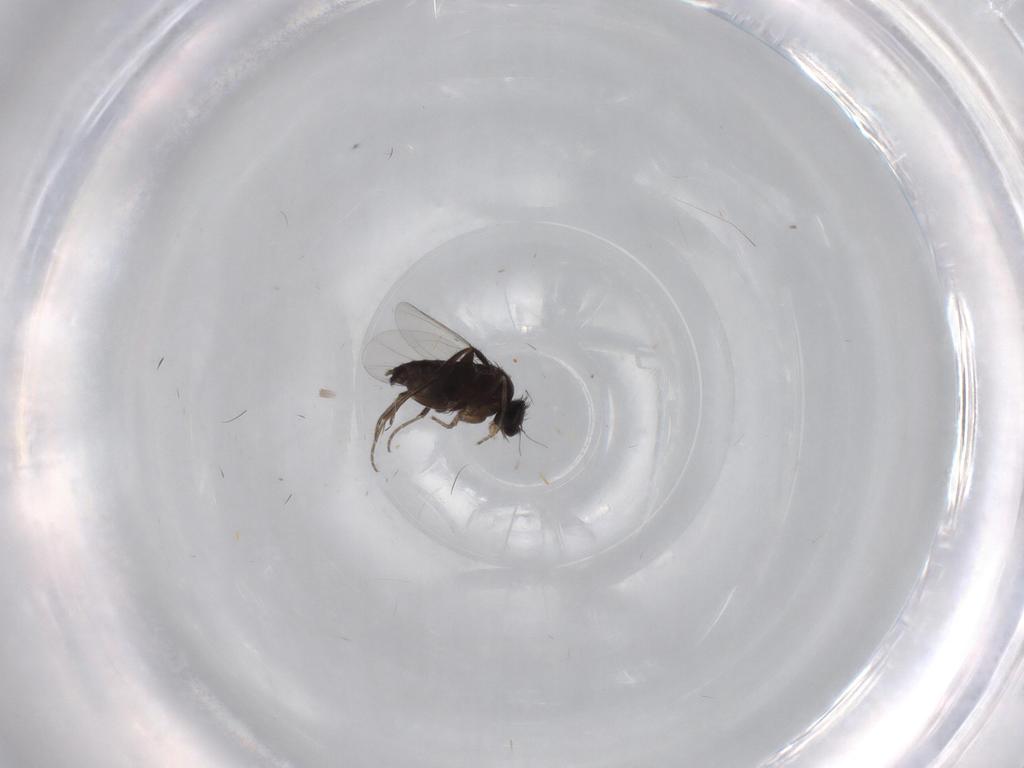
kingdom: Animalia
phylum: Arthropoda
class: Insecta
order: Diptera
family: Phoridae
